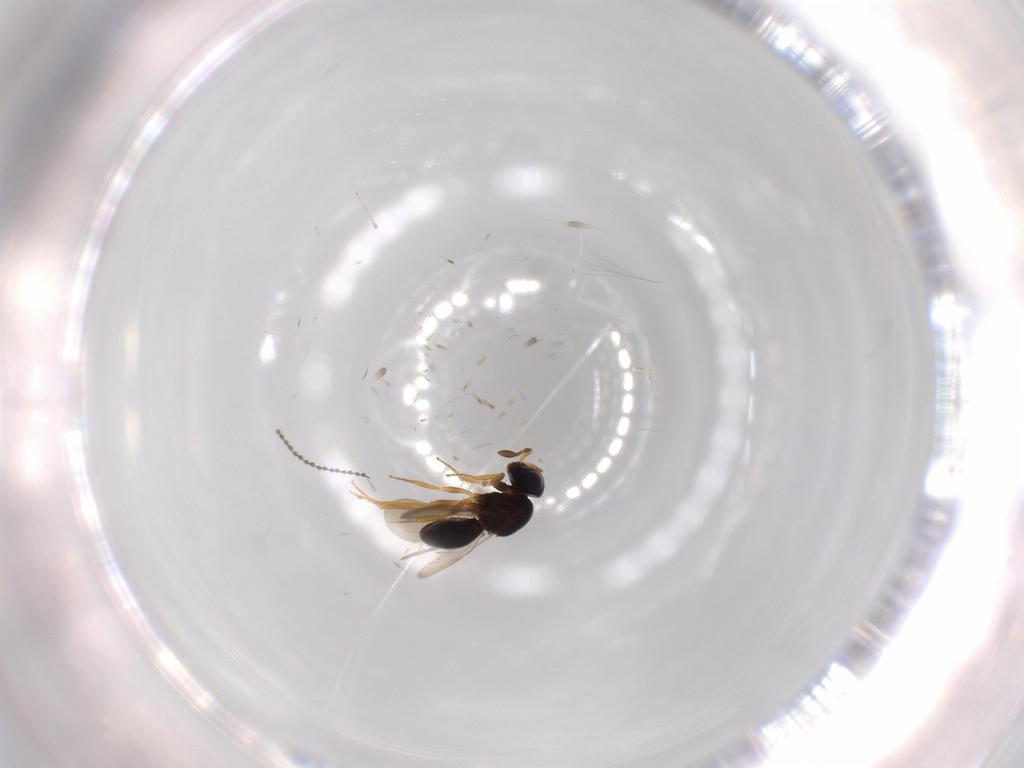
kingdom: Animalia
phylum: Arthropoda
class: Insecta
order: Hymenoptera
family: Scelionidae
